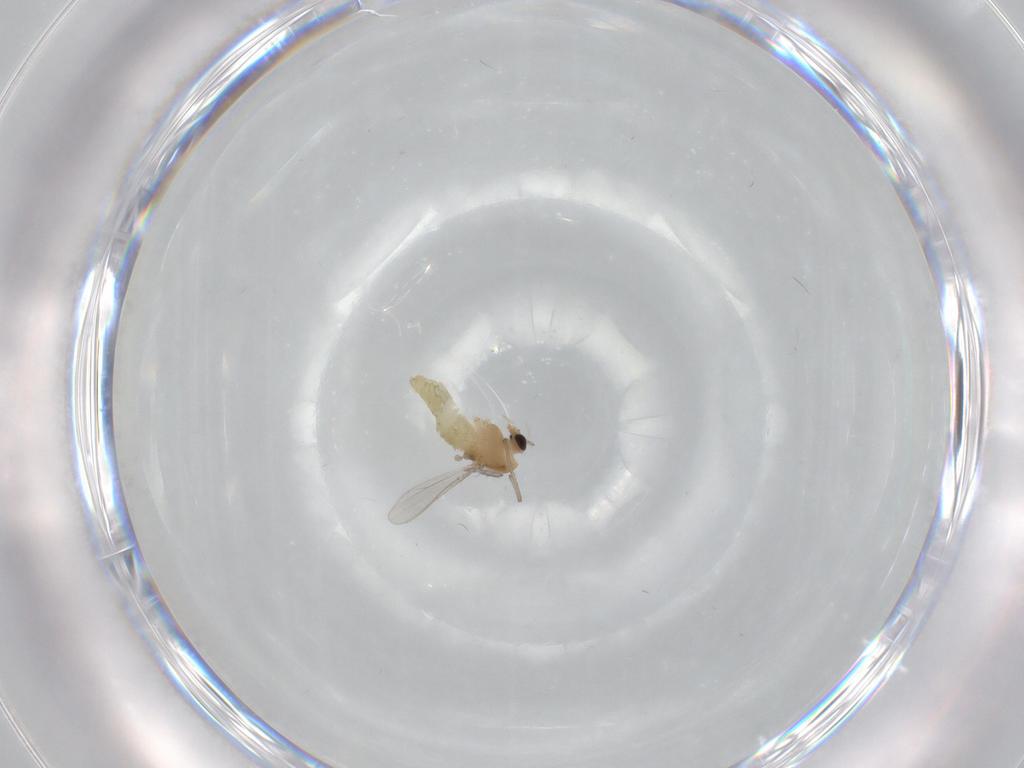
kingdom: Animalia
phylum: Arthropoda
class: Insecta
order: Diptera
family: Chironomidae
